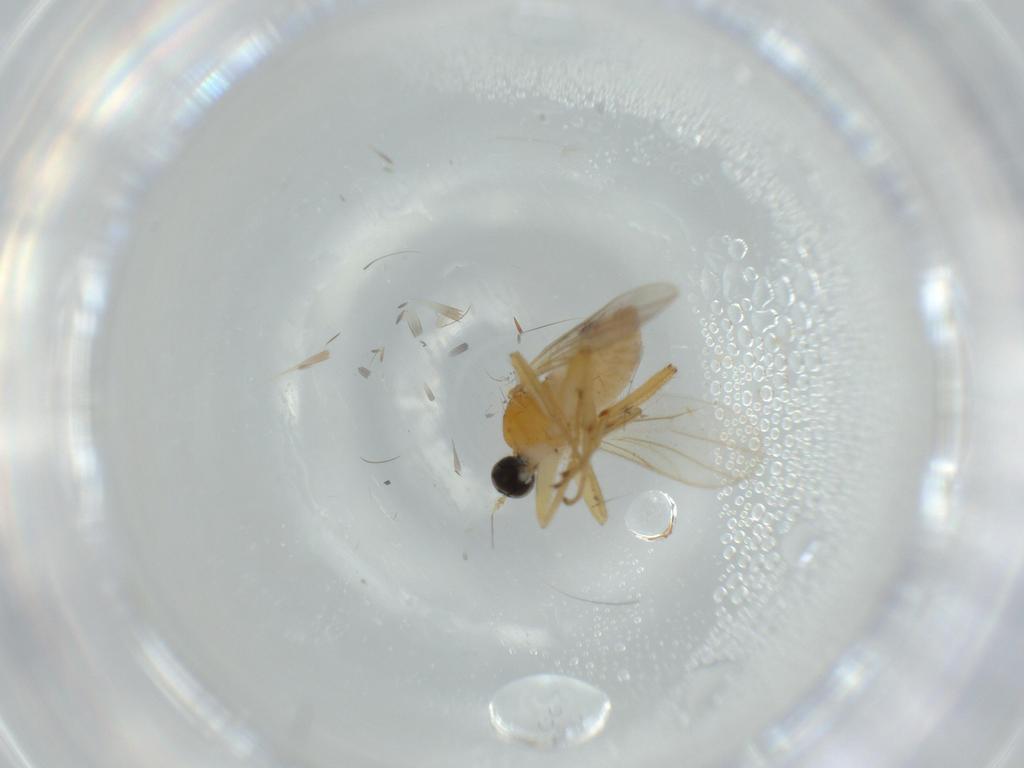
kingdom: Animalia
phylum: Arthropoda
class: Insecta
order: Diptera
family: Hybotidae
